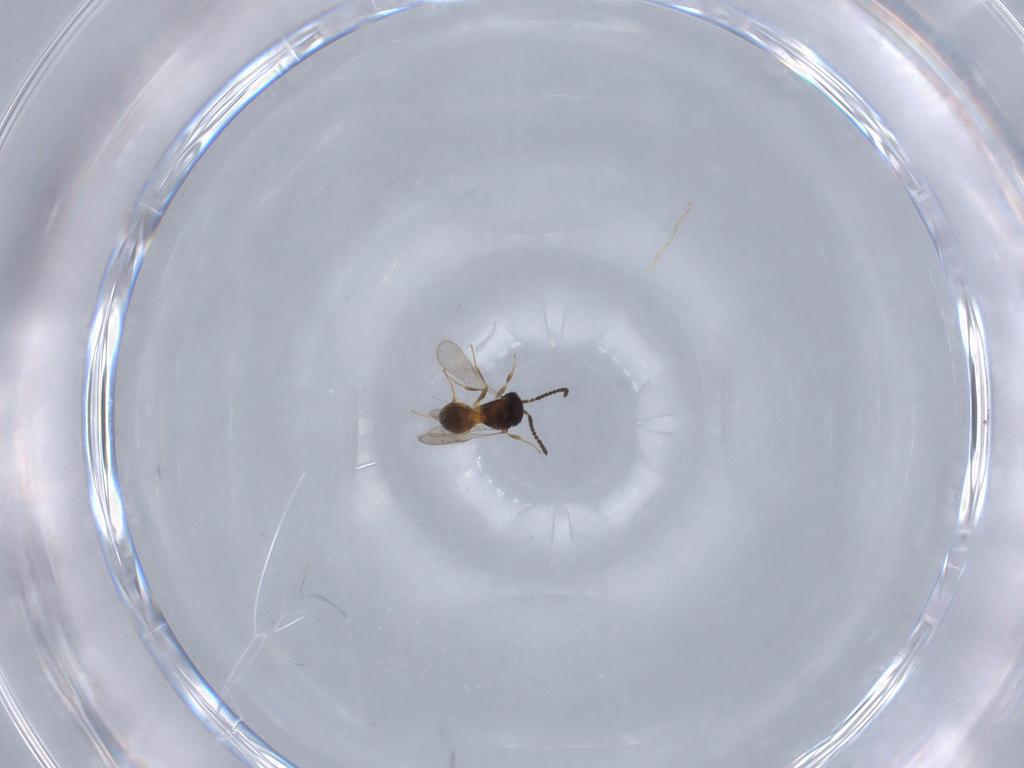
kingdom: Animalia
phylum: Arthropoda
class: Insecta
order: Hymenoptera
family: Scelionidae
